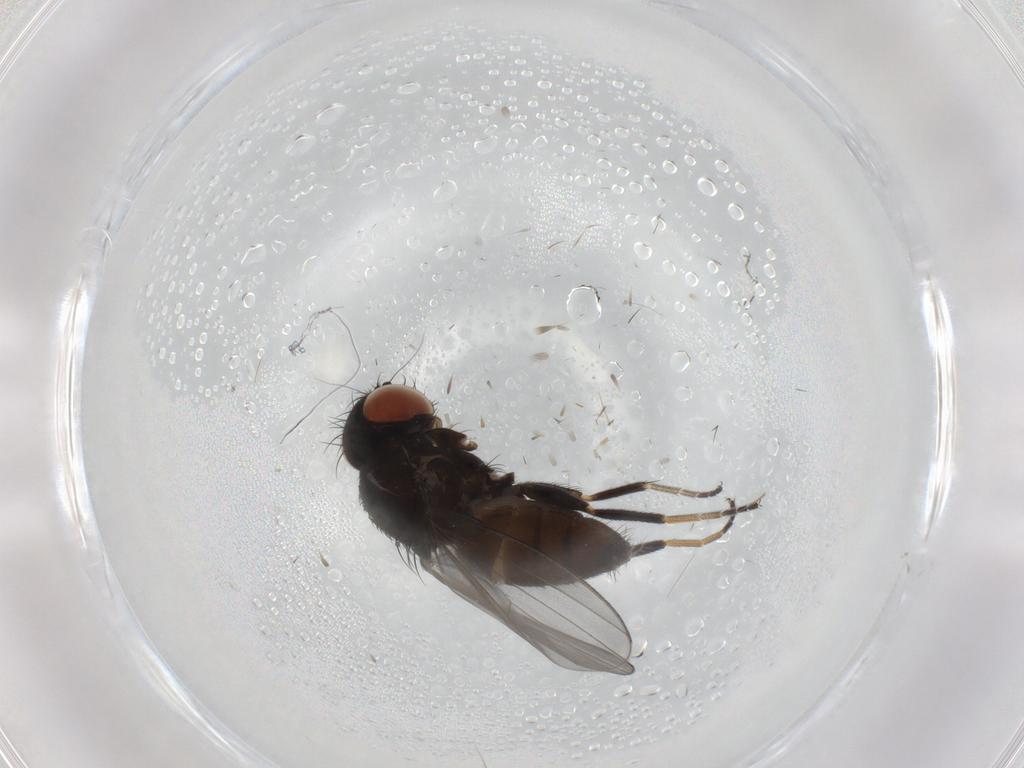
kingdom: Animalia
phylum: Arthropoda
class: Insecta
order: Diptera
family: Milichiidae
